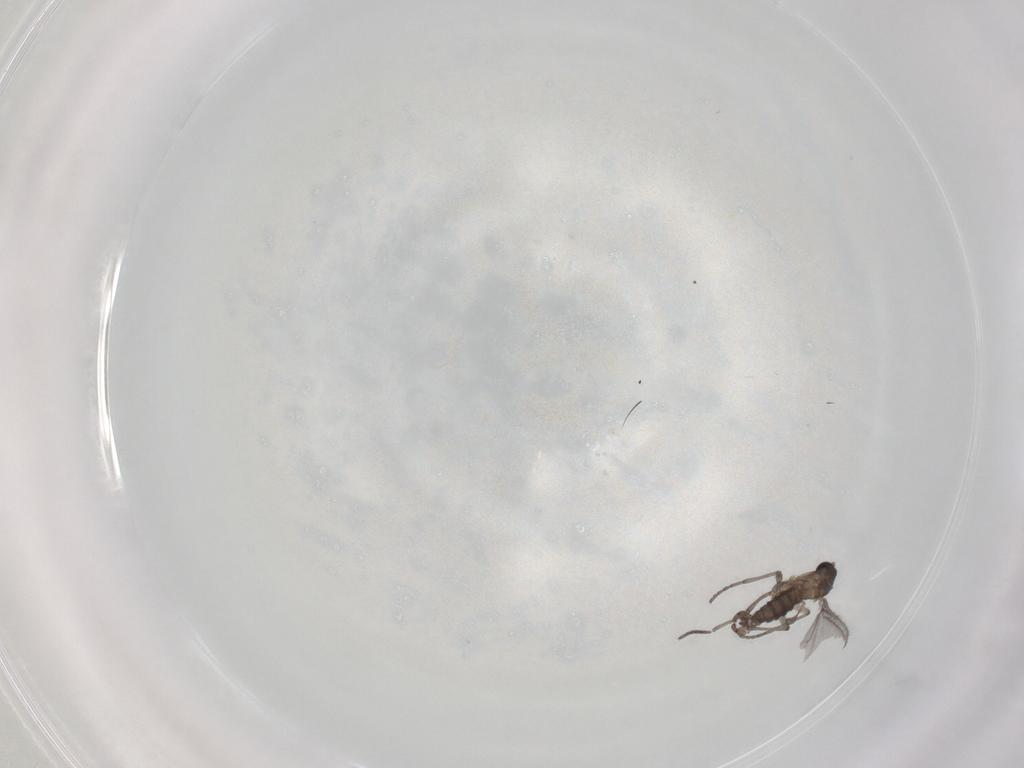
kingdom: Animalia
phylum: Arthropoda
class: Insecta
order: Diptera
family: Sciaridae
